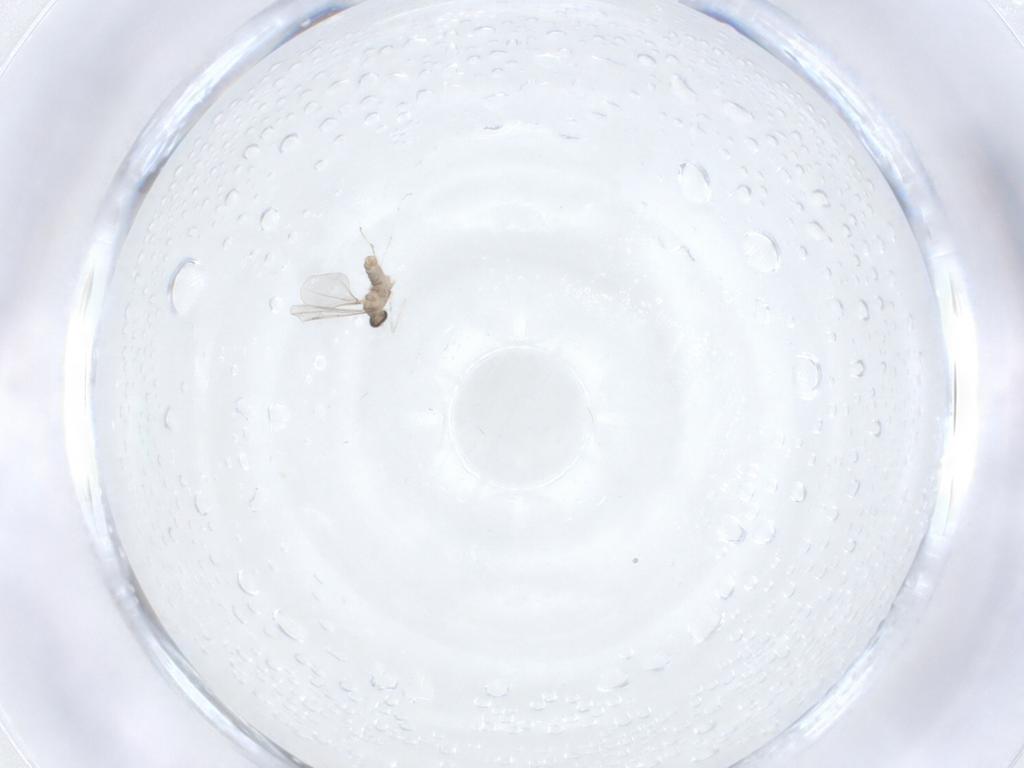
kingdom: Animalia
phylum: Arthropoda
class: Insecta
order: Diptera
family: Cecidomyiidae
